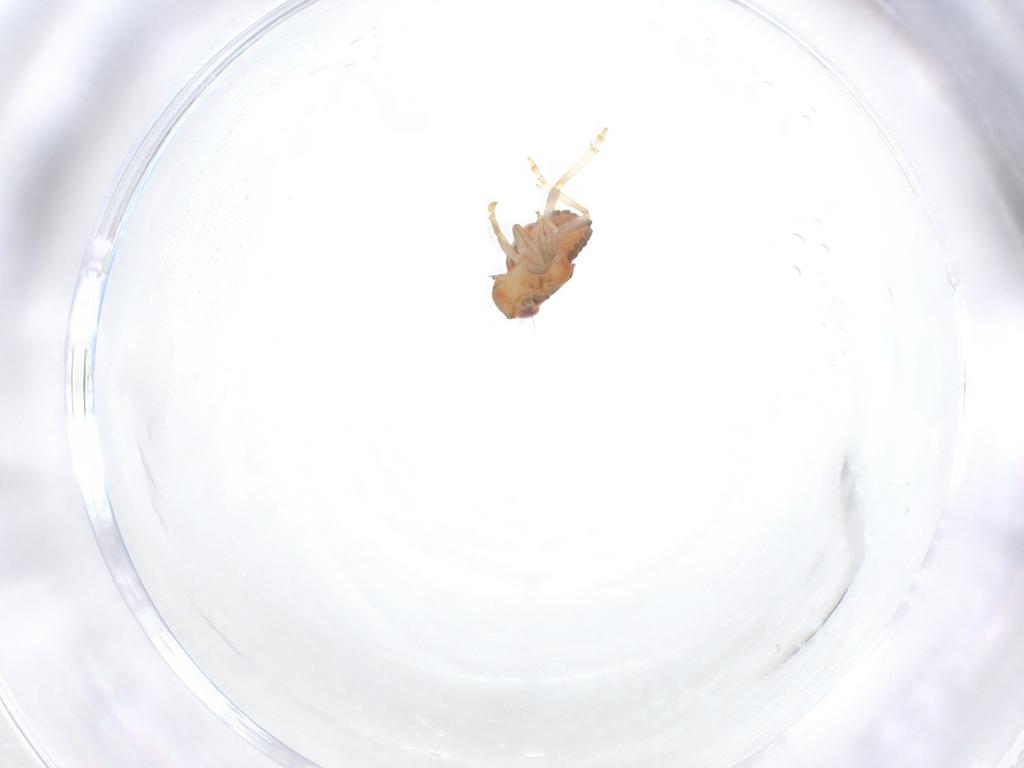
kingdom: Animalia
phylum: Arthropoda
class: Insecta
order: Hemiptera
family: Issidae
